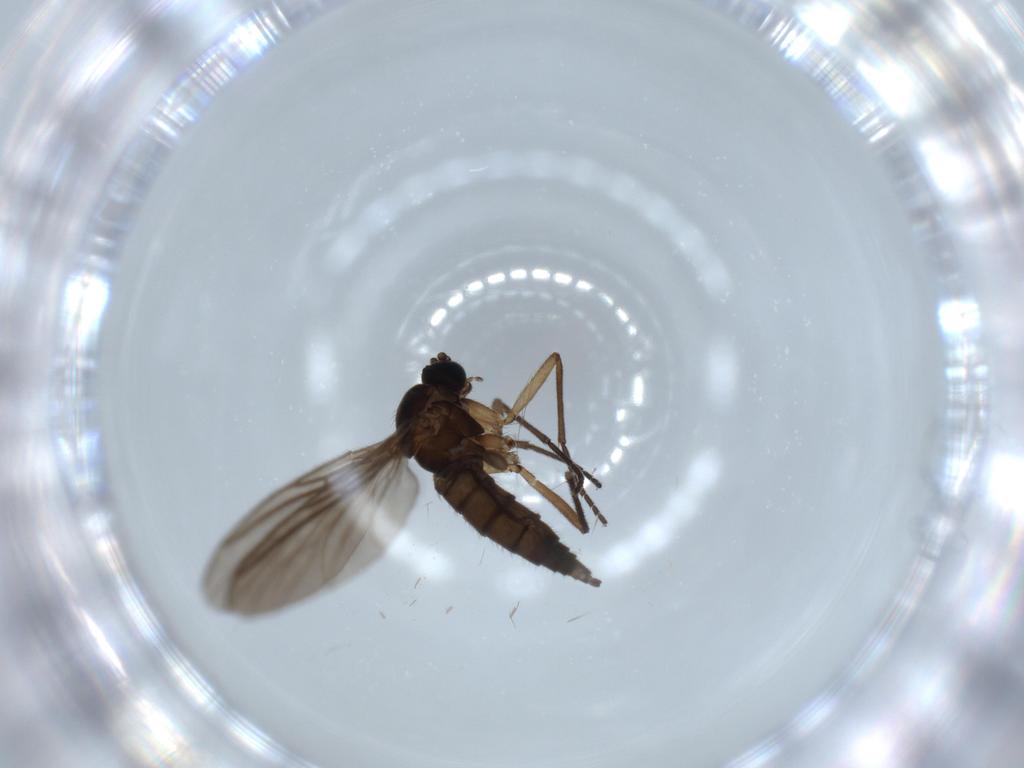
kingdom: Animalia
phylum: Arthropoda
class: Insecta
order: Diptera
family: Sciaridae
